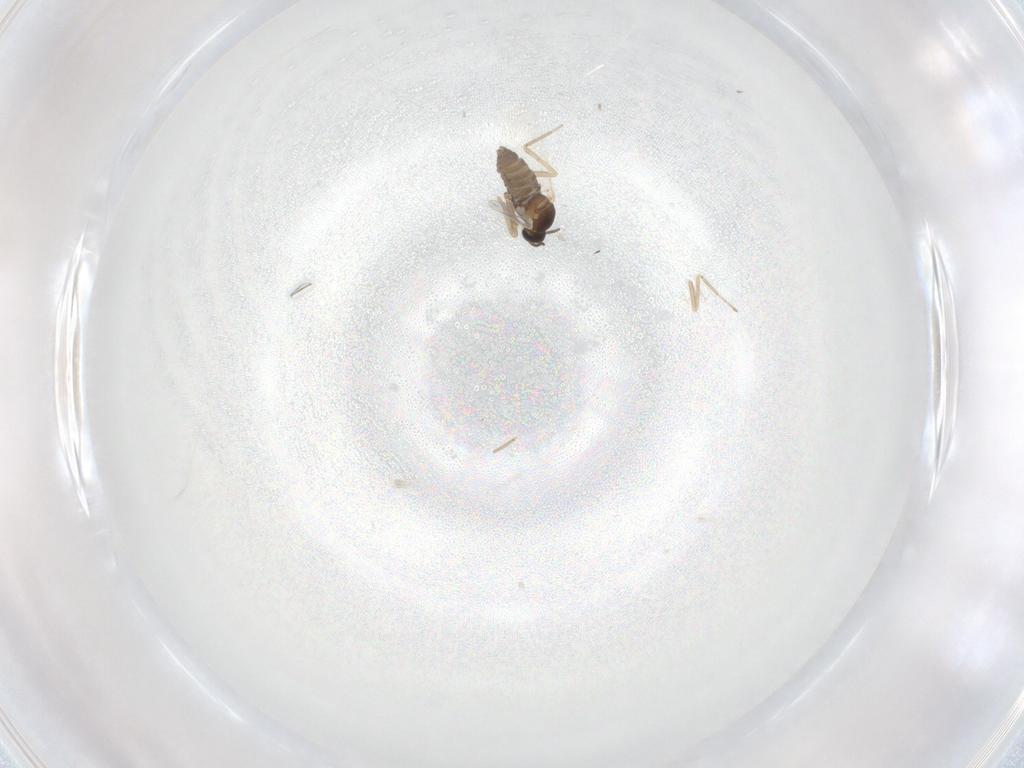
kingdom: Animalia
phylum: Arthropoda
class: Insecta
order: Diptera
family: Cecidomyiidae
